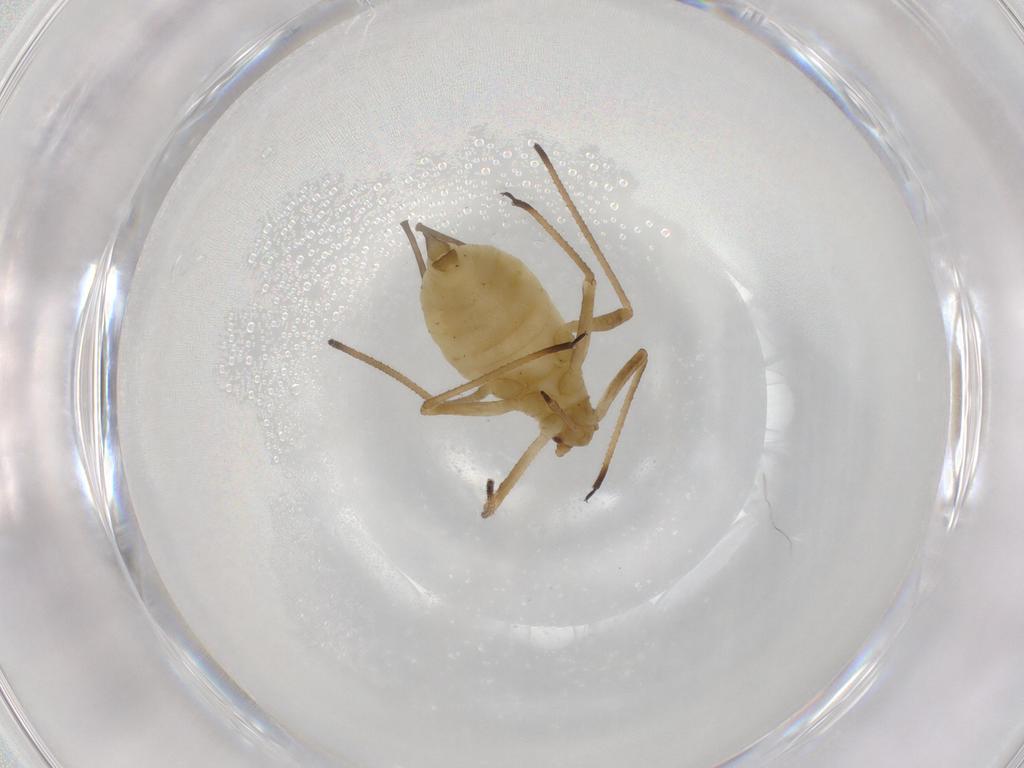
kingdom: Animalia
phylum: Arthropoda
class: Insecta
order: Hemiptera
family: Aphididae
